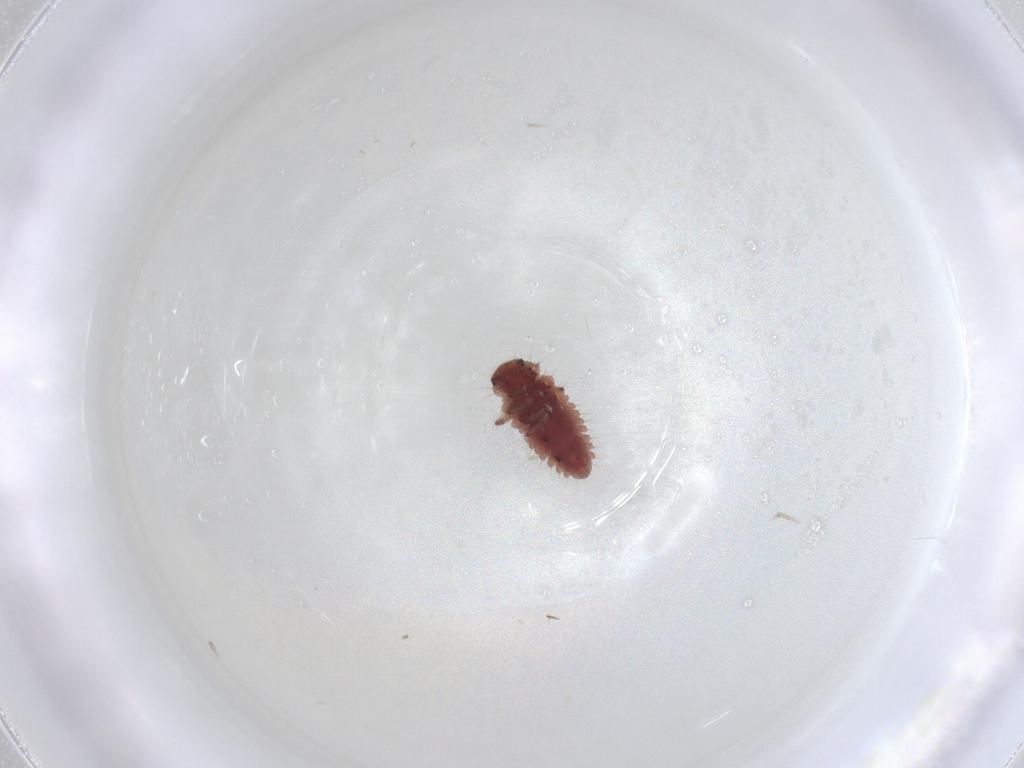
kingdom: Animalia
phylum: Arthropoda
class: Insecta
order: Coleoptera
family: Coccinellidae
